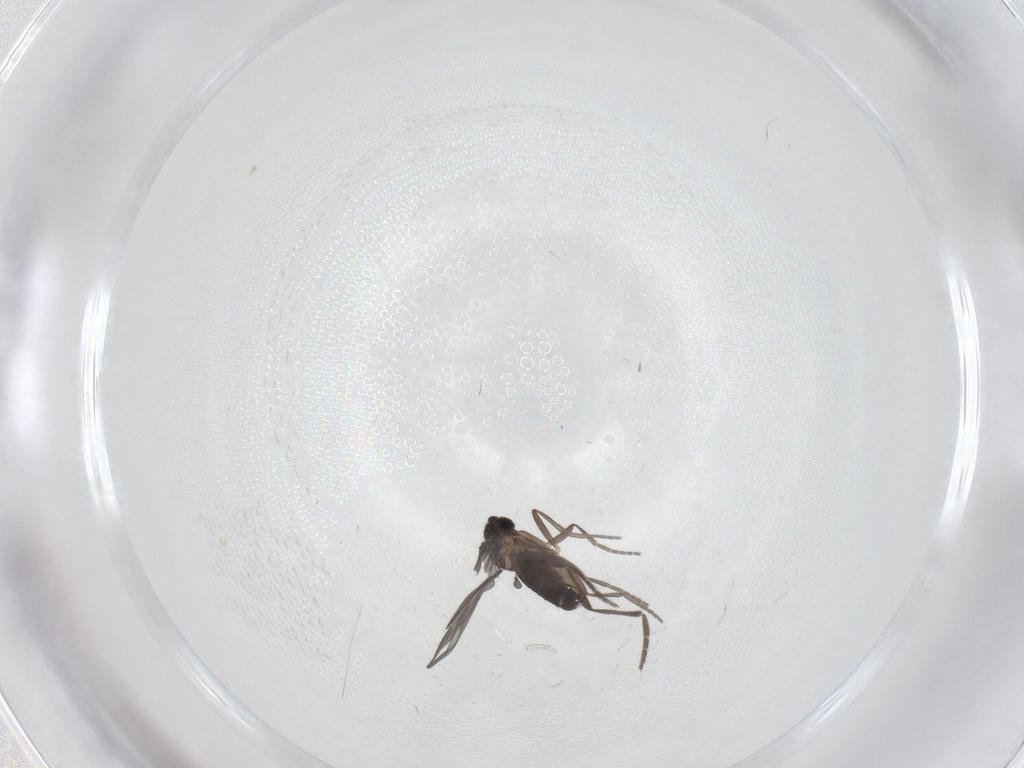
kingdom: Animalia
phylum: Arthropoda
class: Insecta
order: Diptera
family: Phoridae
